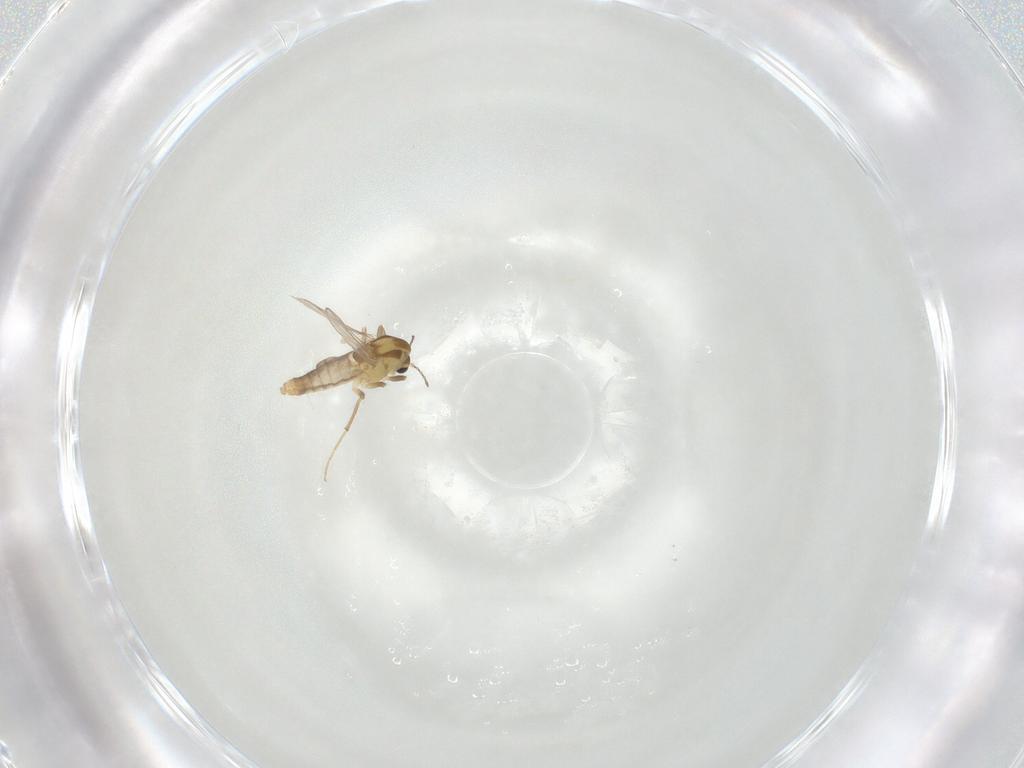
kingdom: Animalia
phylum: Arthropoda
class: Insecta
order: Diptera
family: Chironomidae
